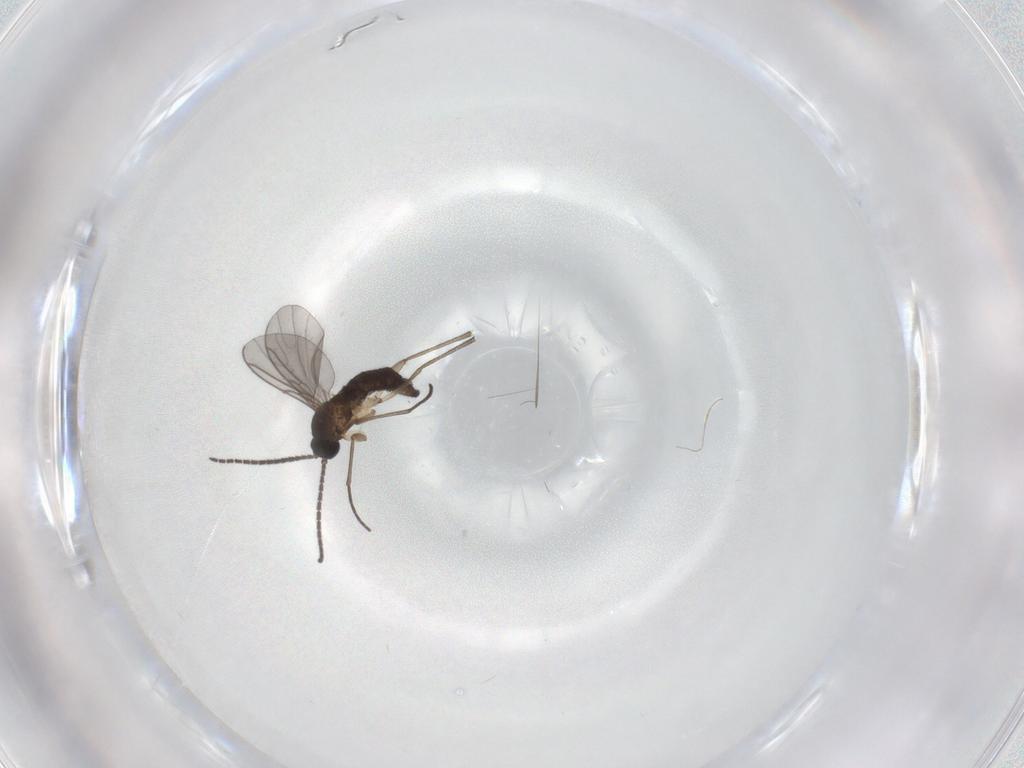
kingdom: Animalia
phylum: Arthropoda
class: Insecta
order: Diptera
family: Sciaridae
